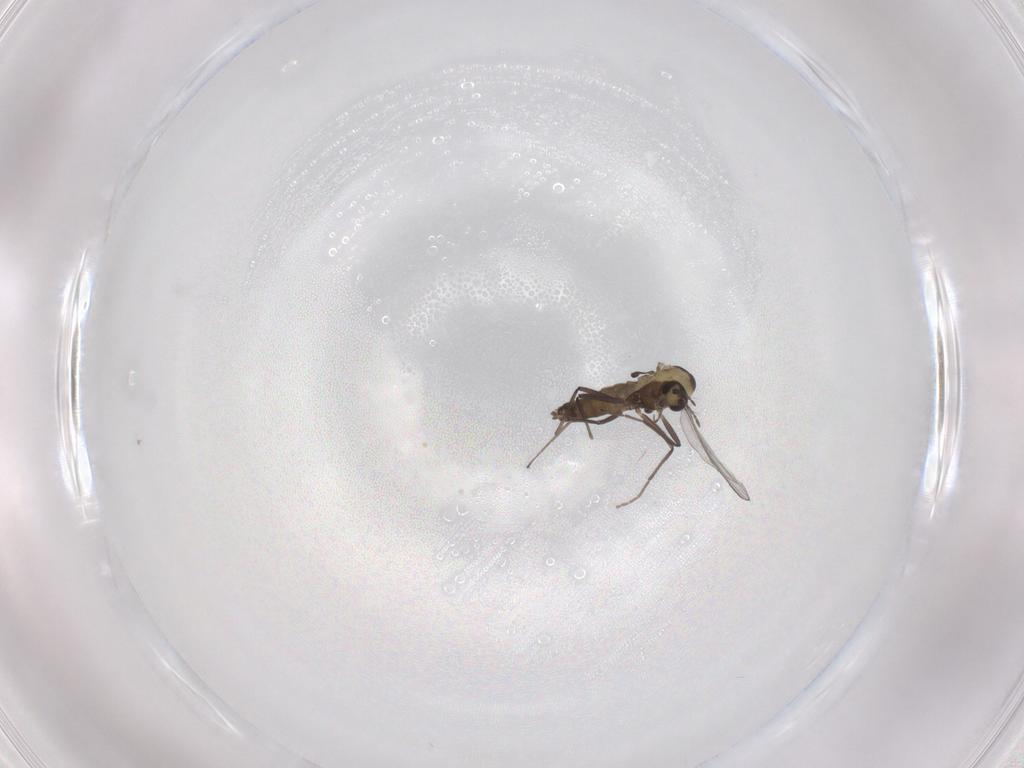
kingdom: Animalia
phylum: Arthropoda
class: Insecta
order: Diptera
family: Chironomidae
